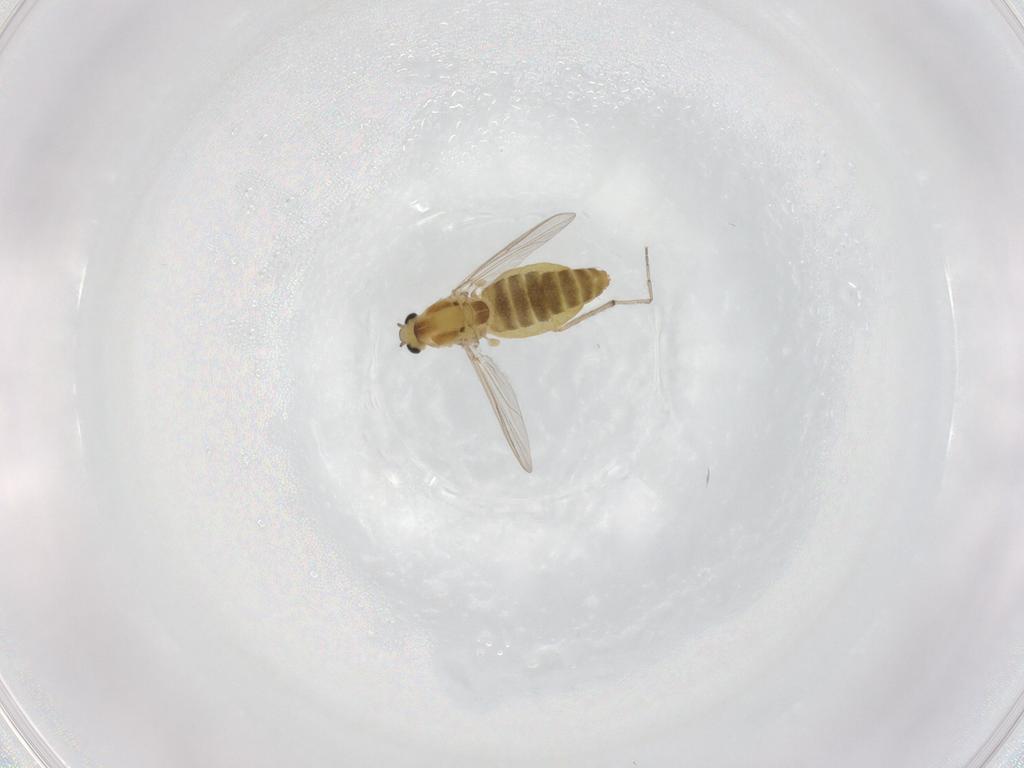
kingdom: Animalia
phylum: Arthropoda
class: Insecta
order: Diptera
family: Chironomidae
